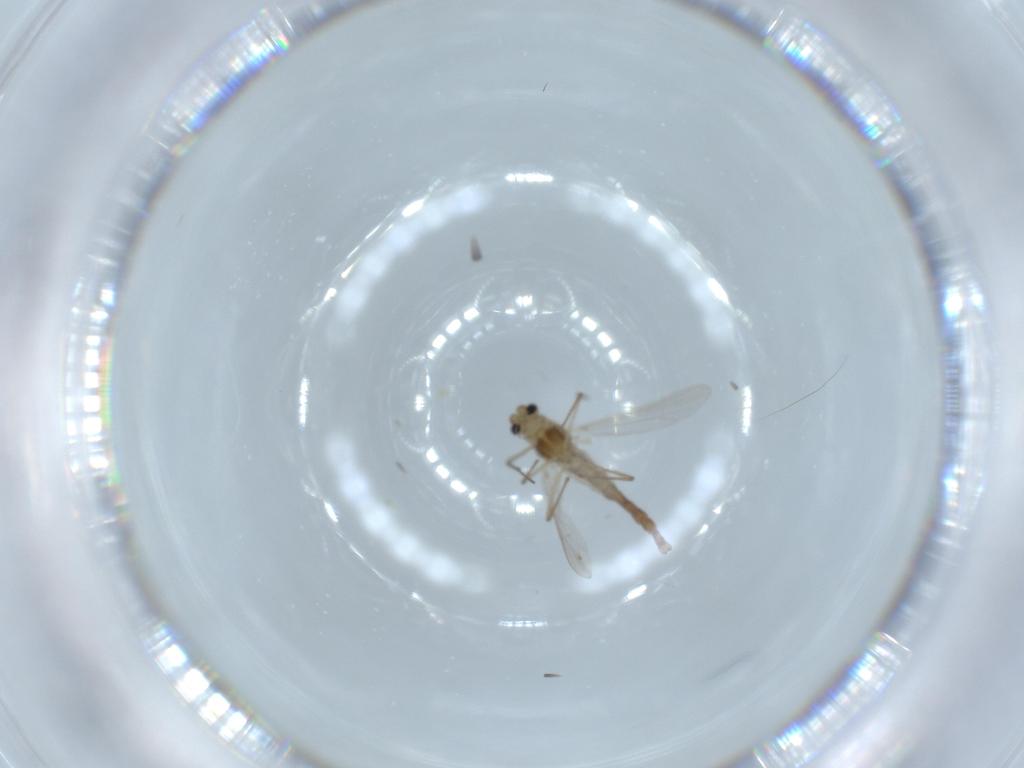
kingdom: Animalia
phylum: Arthropoda
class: Insecta
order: Diptera
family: Chironomidae
